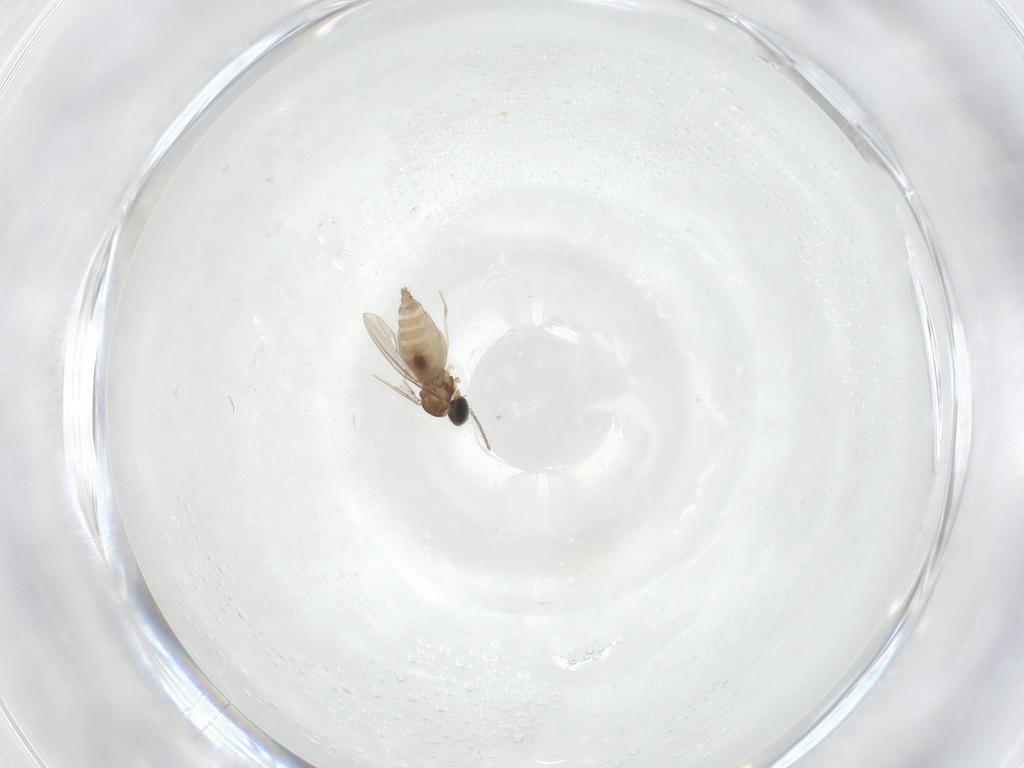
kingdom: Animalia
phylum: Arthropoda
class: Insecta
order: Diptera
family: Cecidomyiidae
